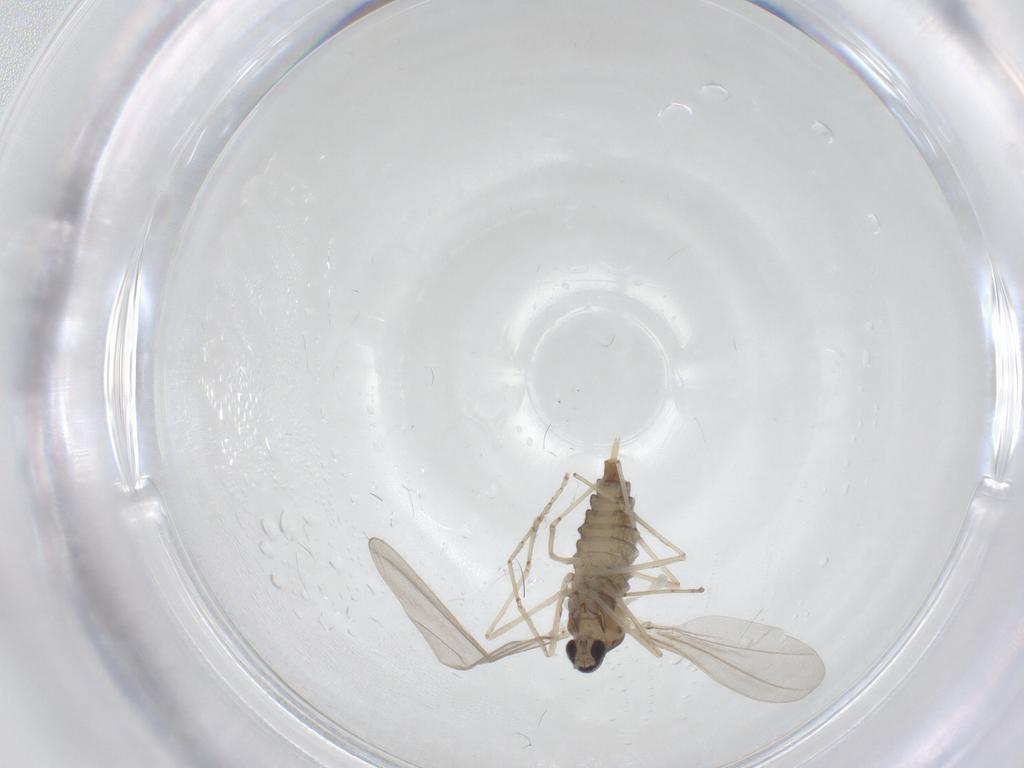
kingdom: Animalia
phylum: Arthropoda
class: Insecta
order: Diptera
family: Cecidomyiidae
